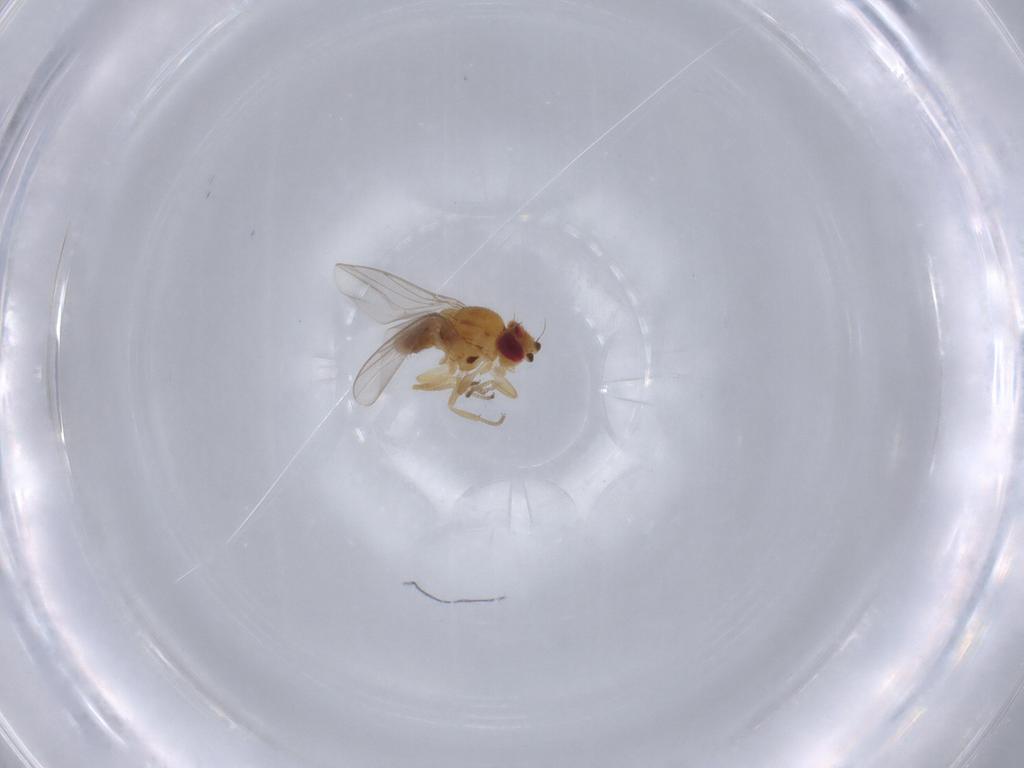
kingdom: Animalia
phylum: Arthropoda
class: Insecta
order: Diptera
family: Chloropidae
